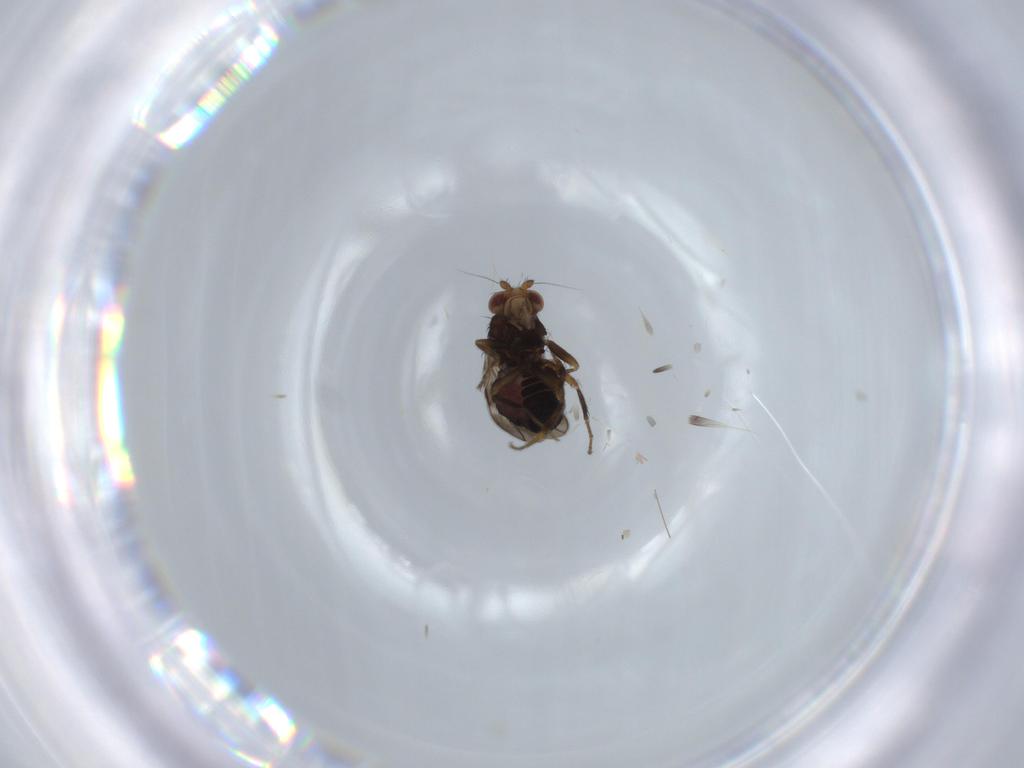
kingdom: Animalia
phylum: Arthropoda
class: Insecta
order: Diptera
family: Sphaeroceridae
